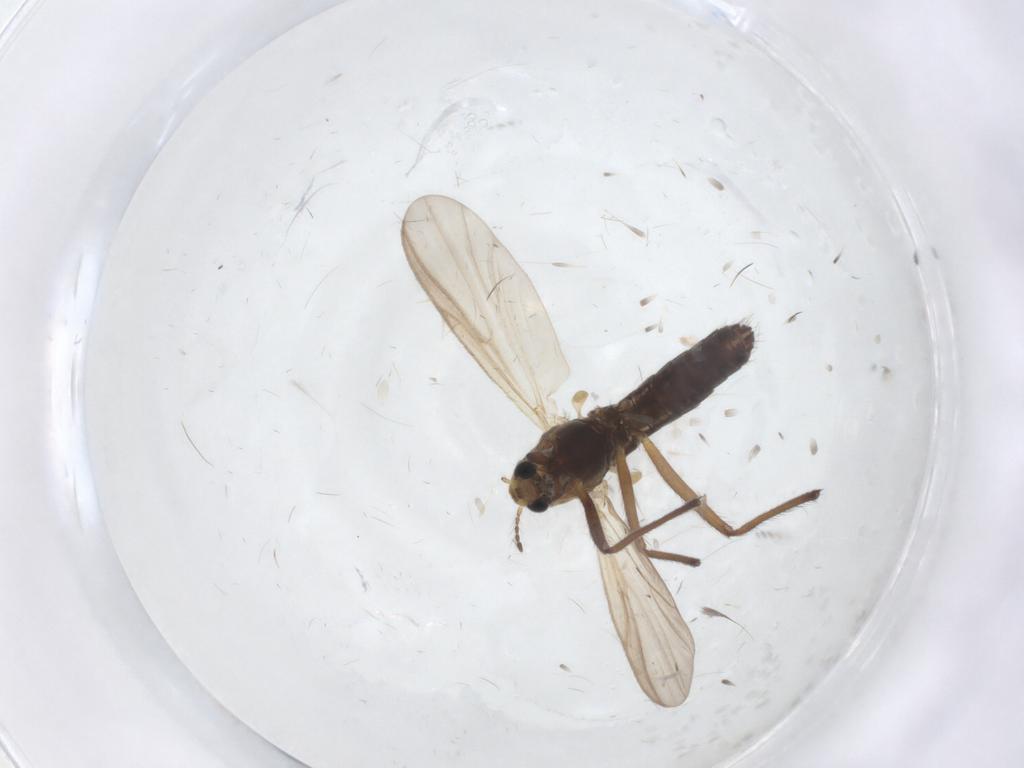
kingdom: Animalia
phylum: Arthropoda
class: Insecta
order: Diptera
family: Chironomidae
